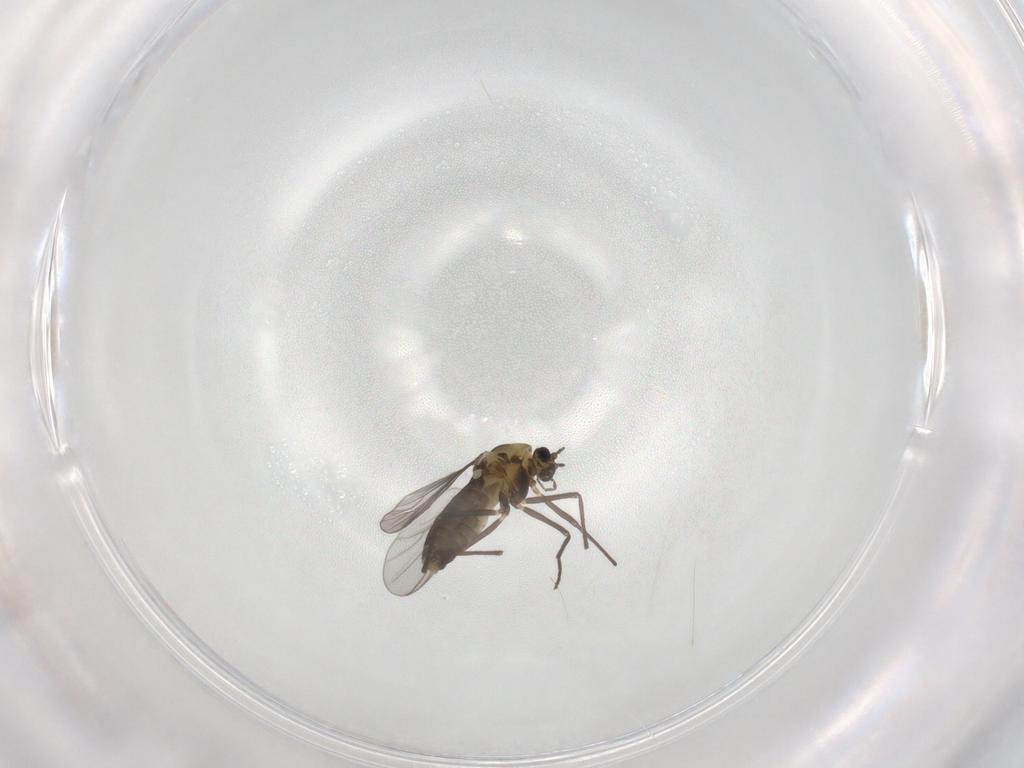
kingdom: Animalia
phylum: Arthropoda
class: Insecta
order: Diptera
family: Chironomidae
